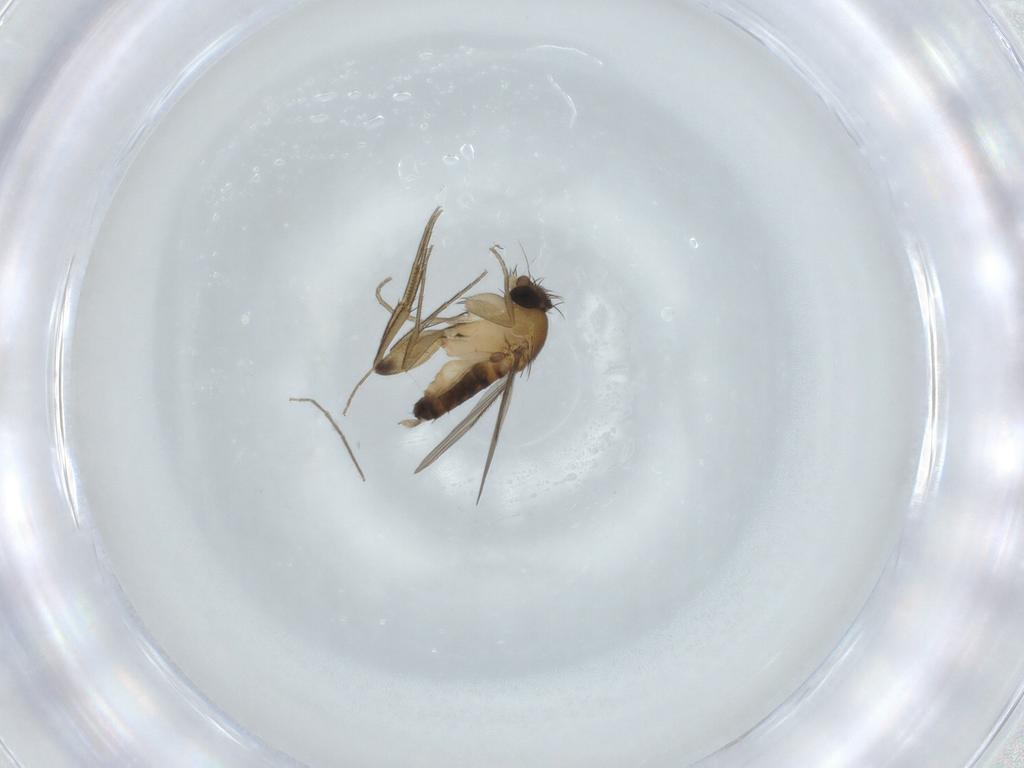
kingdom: Animalia
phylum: Arthropoda
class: Insecta
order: Diptera
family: Phoridae
